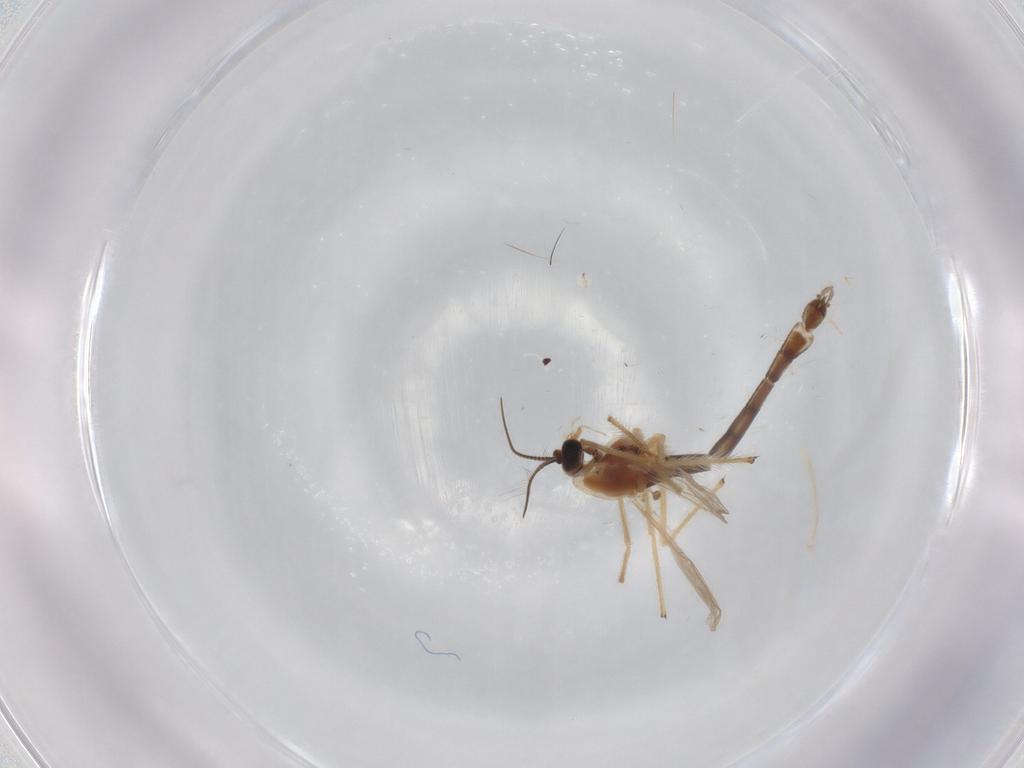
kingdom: Animalia
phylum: Arthropoda
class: Insecta
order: Diptera
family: Chironomidae
